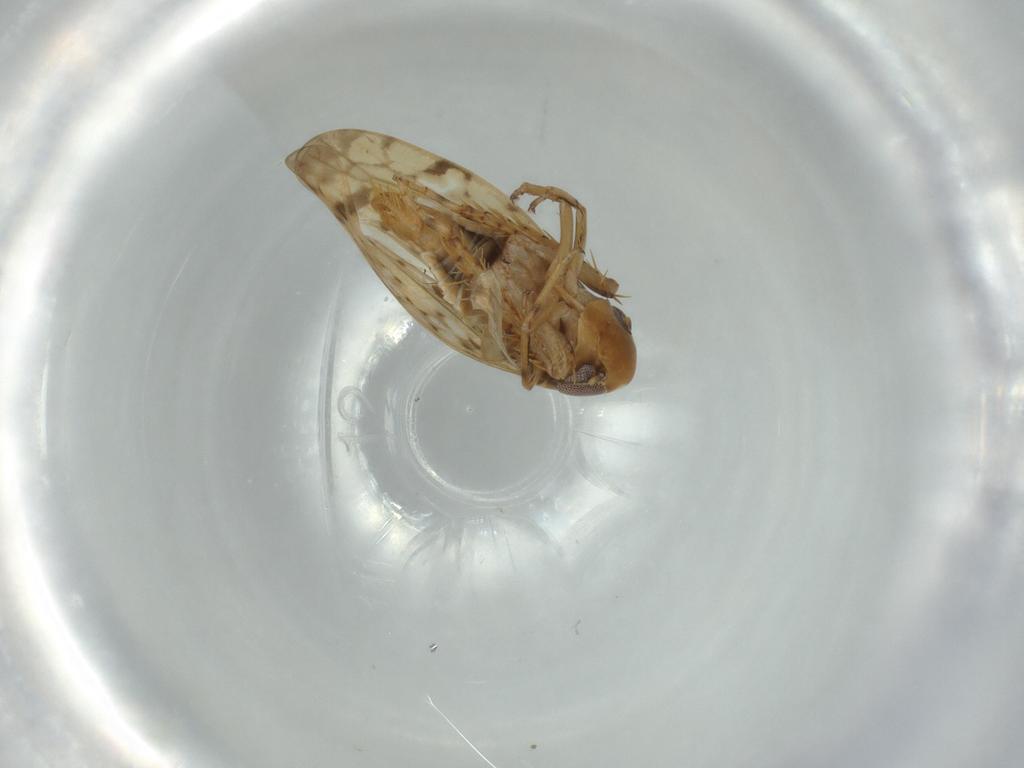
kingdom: Animalia
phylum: Arthropoda
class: Insecta
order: Hemiptera
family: Cicadellidae
